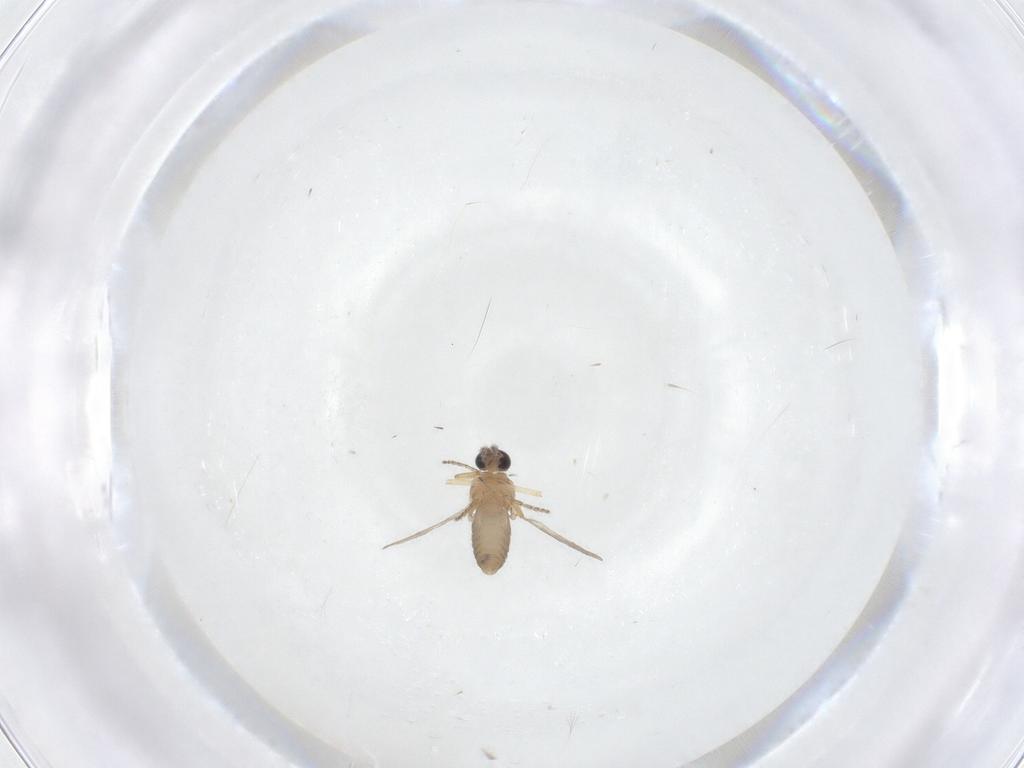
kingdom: Animalia
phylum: Arthropoda
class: Insecta
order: Diptera
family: Ceratopogonidae
